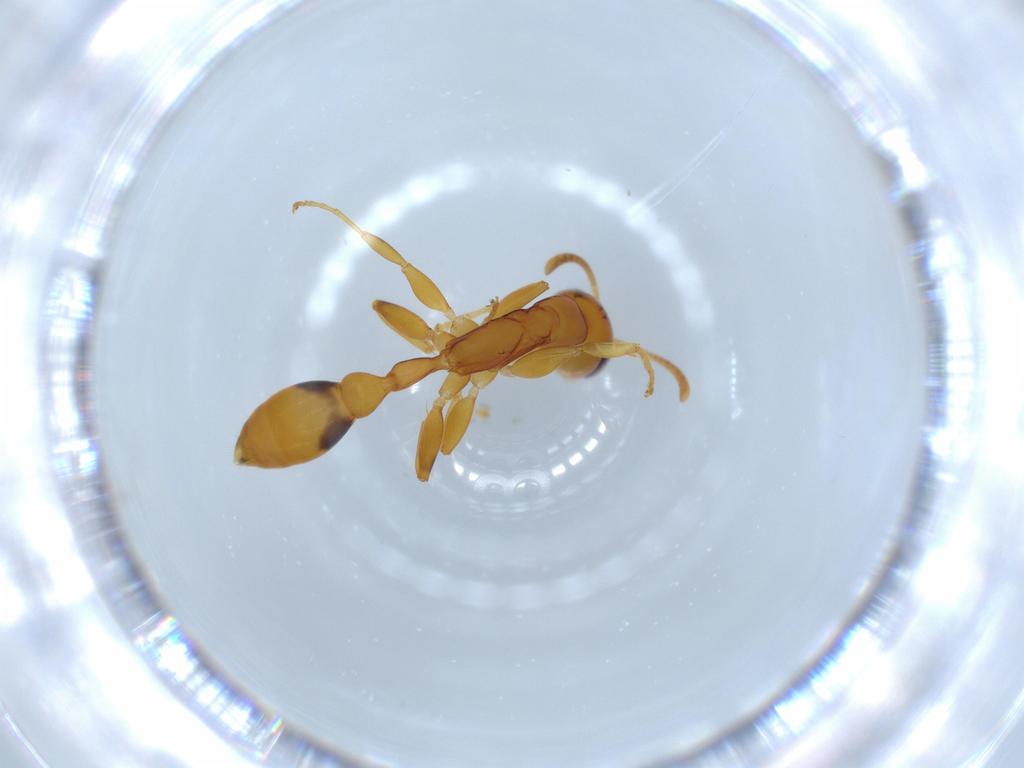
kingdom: Animalia
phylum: Arthropoda
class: Insecta
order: Hymenoptera
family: Formicidae
